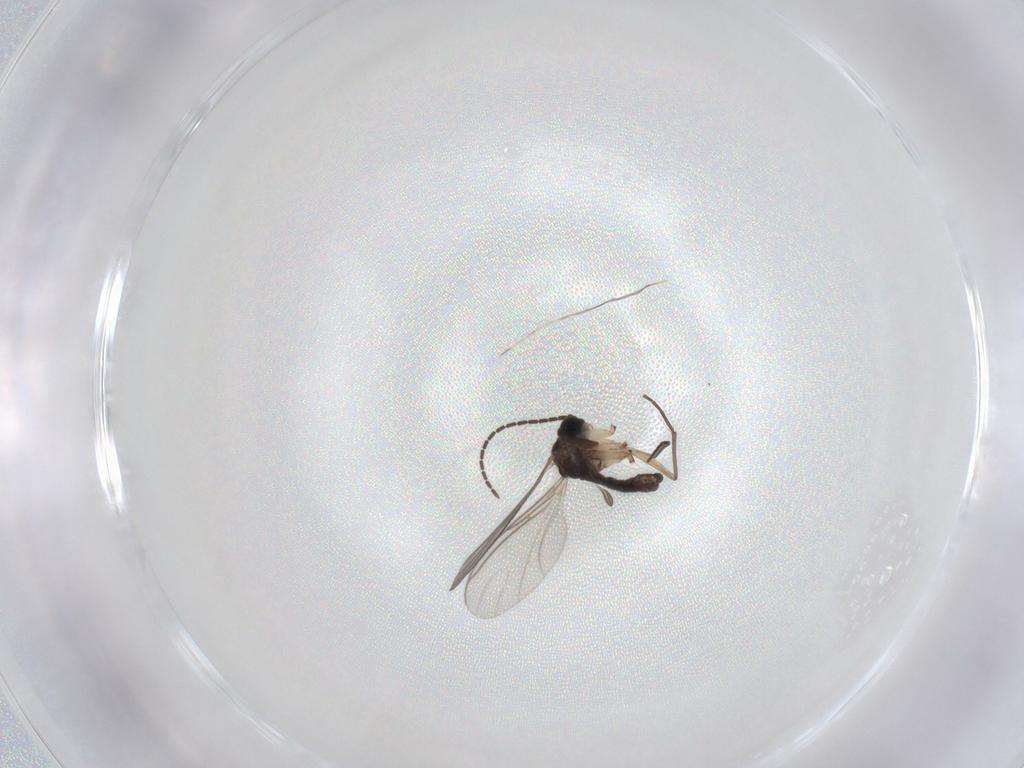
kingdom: Animalia
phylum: Arthropoda
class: Insecta
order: Diptera
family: Sciaridae
